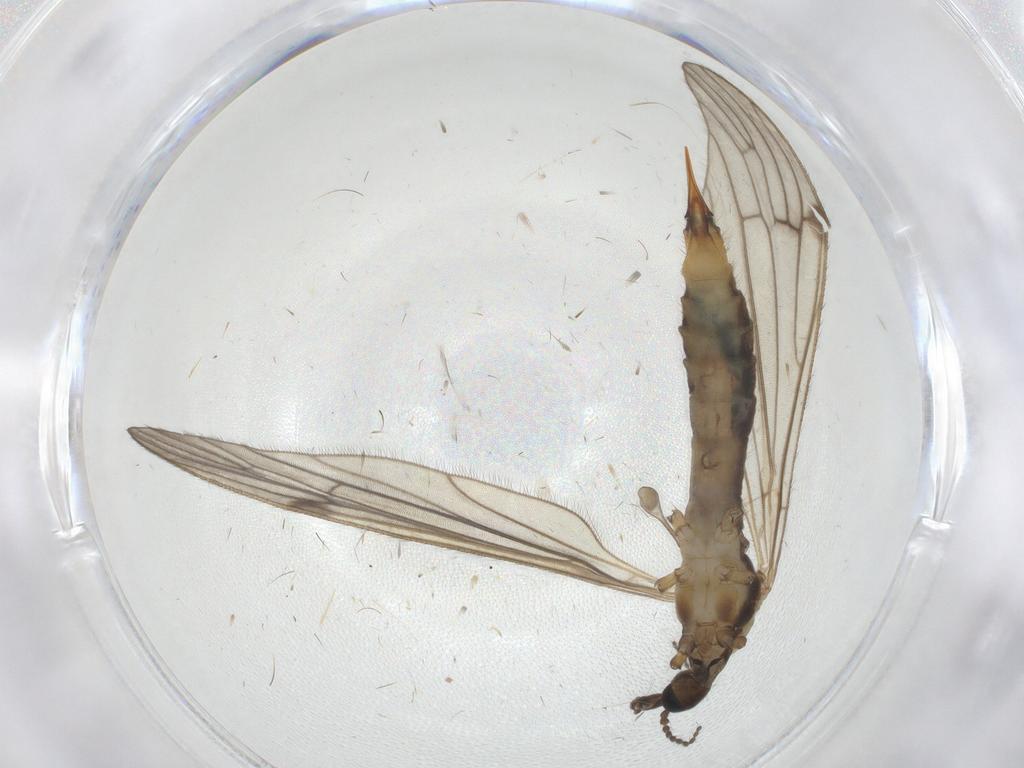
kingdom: Animalia
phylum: Arthropoda
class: Insecta
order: Diptera
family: Limoniidae
